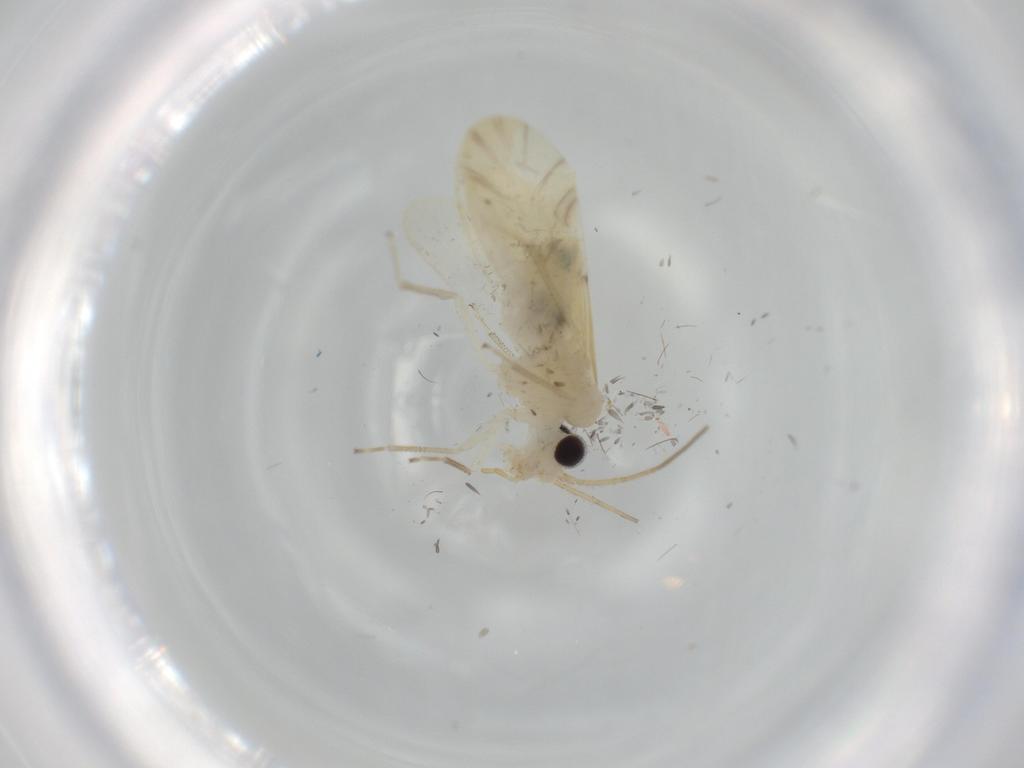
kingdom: Animalia
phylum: Arthropoda
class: Insecta
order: Psocodea
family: Caeciliusidae
